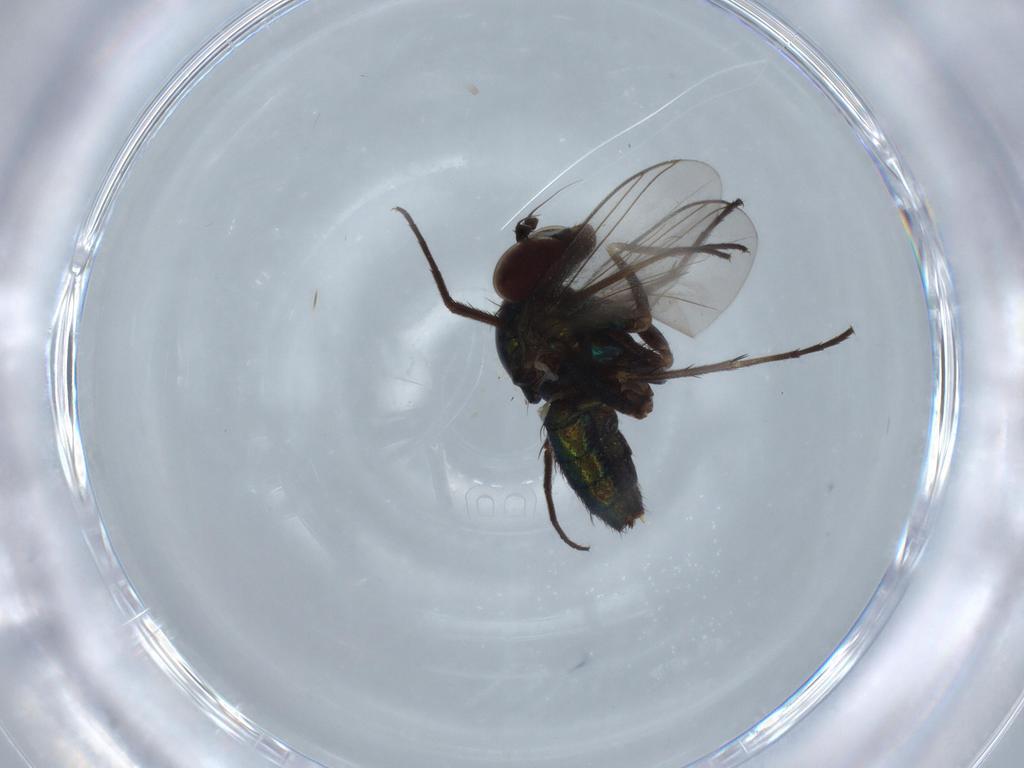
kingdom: Animalia
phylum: Arthropoda
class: Insecta
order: Diptera
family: Dolichopodidae
